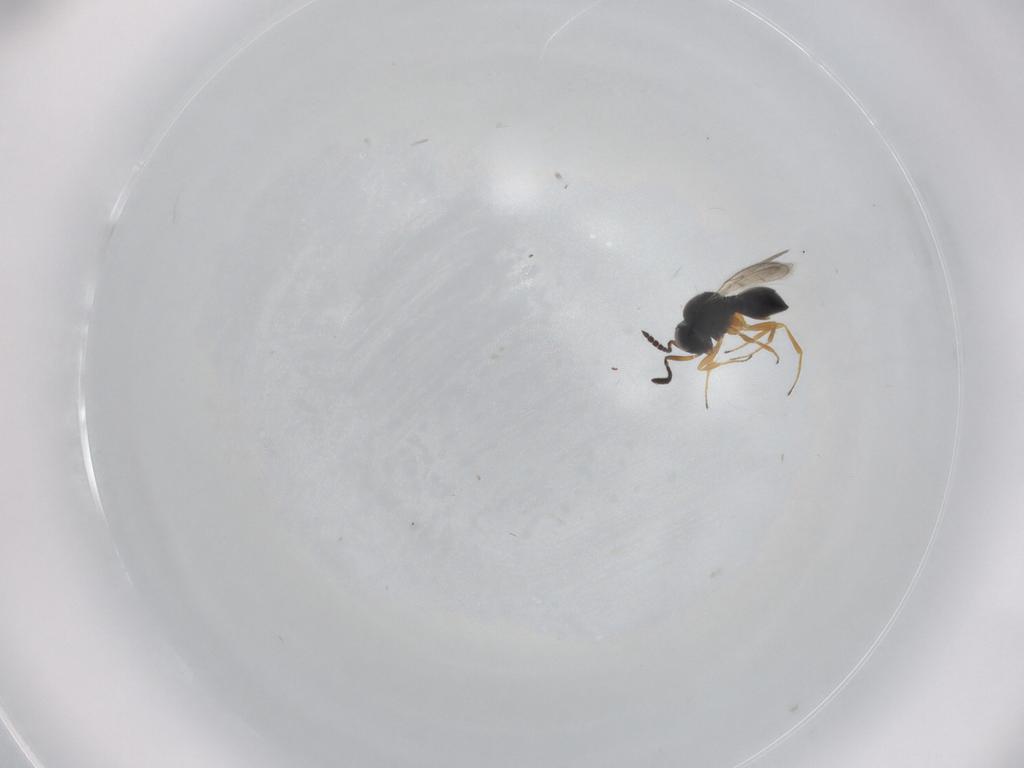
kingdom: Animalia
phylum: Arthropoda
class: Insecta
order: Hymenoptera
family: Scelionidae
